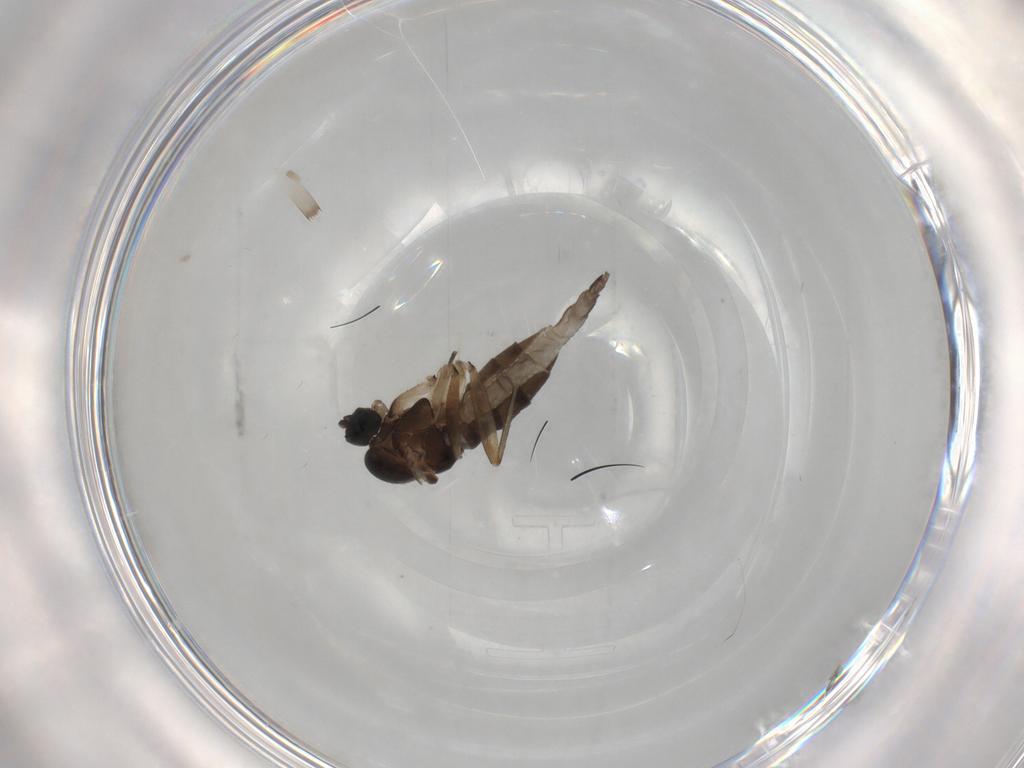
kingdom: Animalia
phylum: Arthropoda
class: Insecta
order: Diptera
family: Sciaridae
